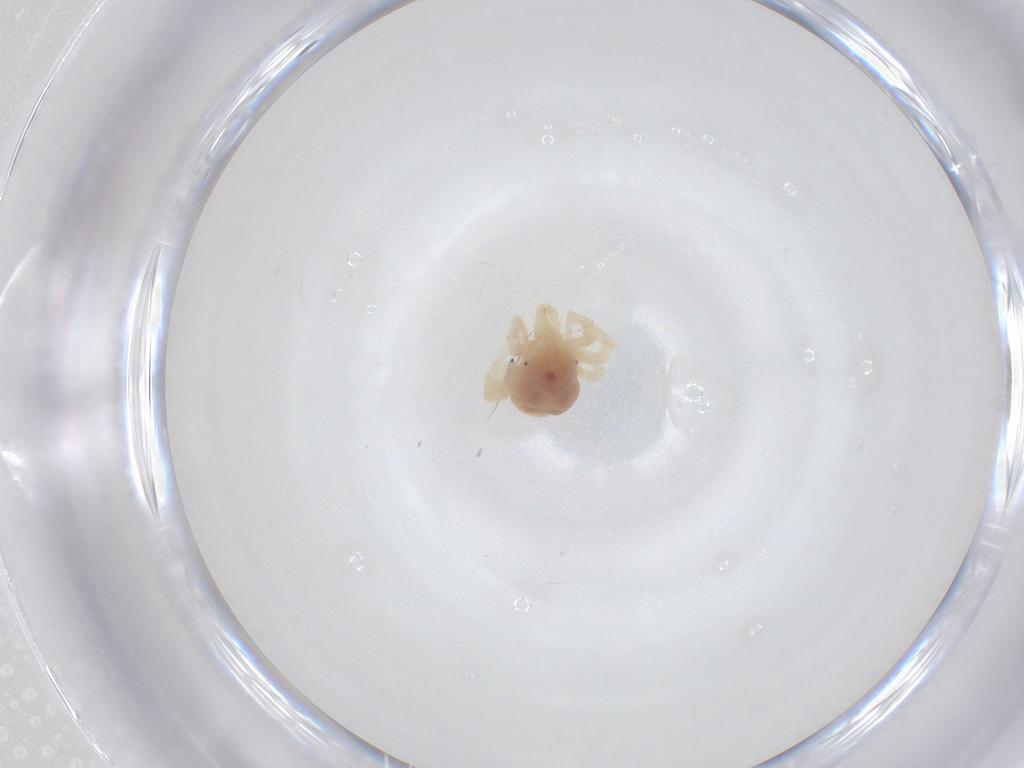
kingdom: Animalia
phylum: Arthropoda
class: Arachnida
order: Trombidiformes
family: Anystidae
